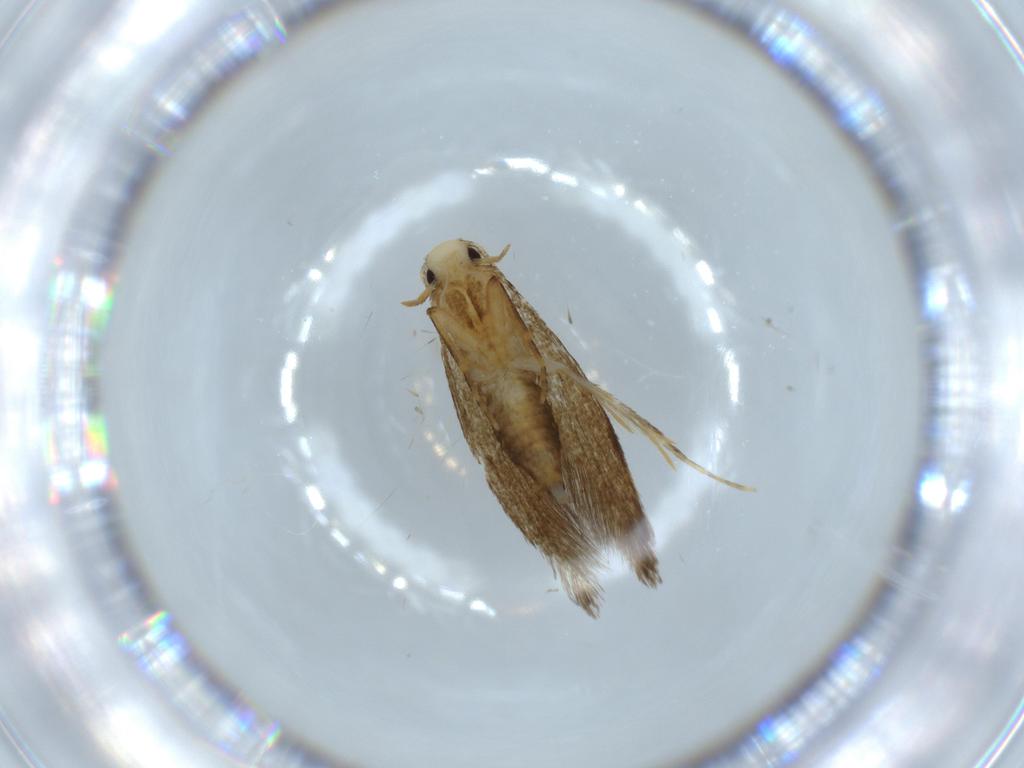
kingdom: Animalia
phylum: Arthropoda
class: Insecta
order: Lepidoptera
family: Tineidae
